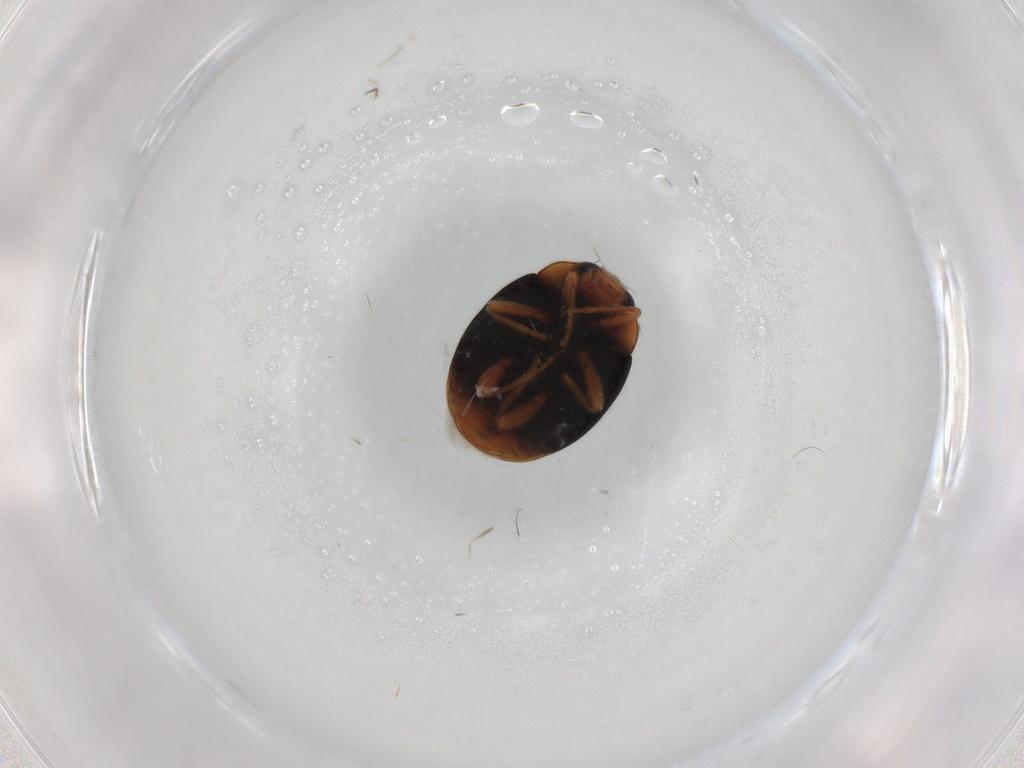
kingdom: Animalia
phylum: Arthropoda
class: Insecta
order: Coleoptera
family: Coccinellidae
